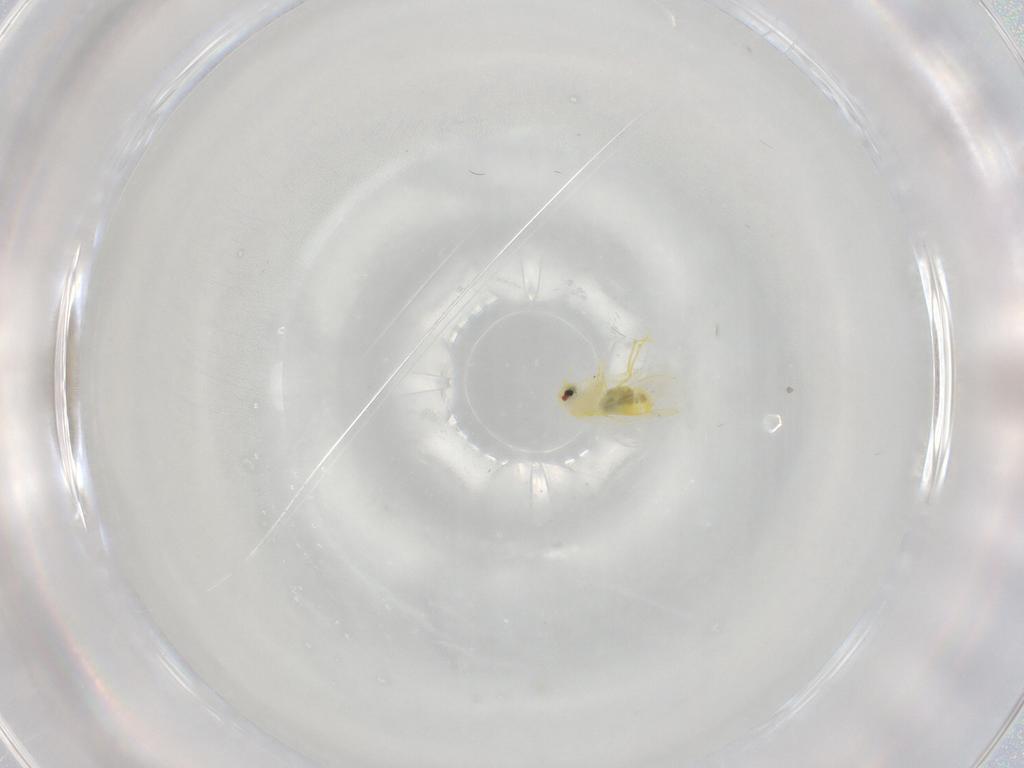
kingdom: Animalia
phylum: Arthropoda
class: Insecta
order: Hemiptera
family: Aleyrodidae
